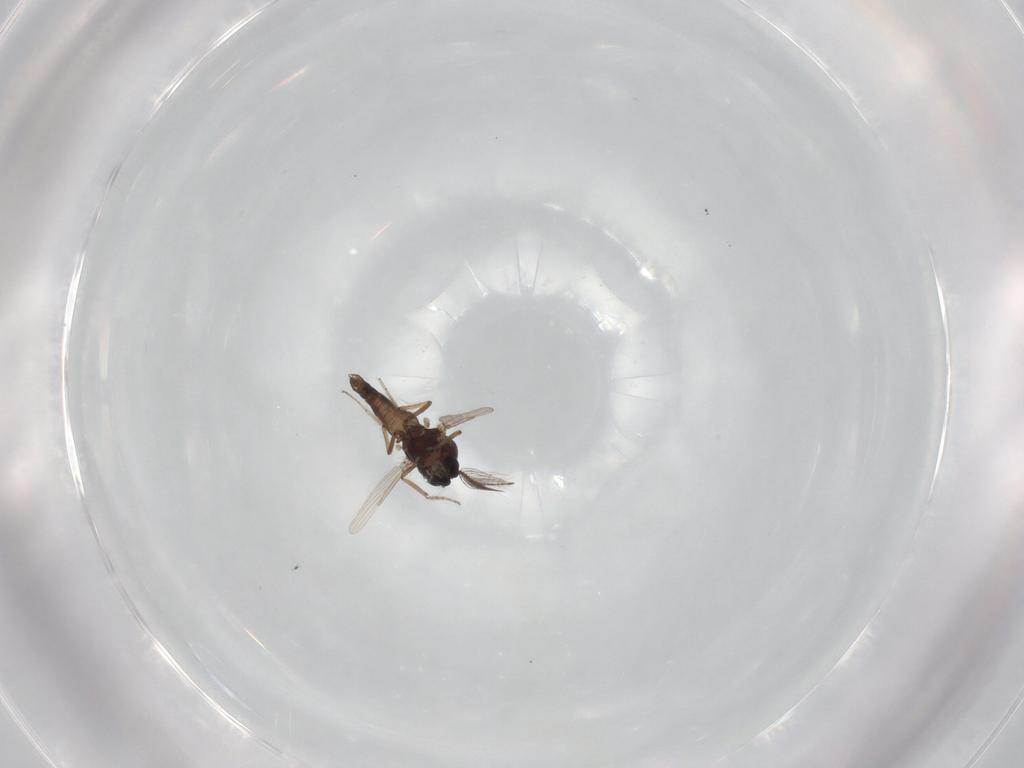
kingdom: Animalia
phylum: Arthropoda
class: Insecta
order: Diptera
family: Ceratopogonidae
